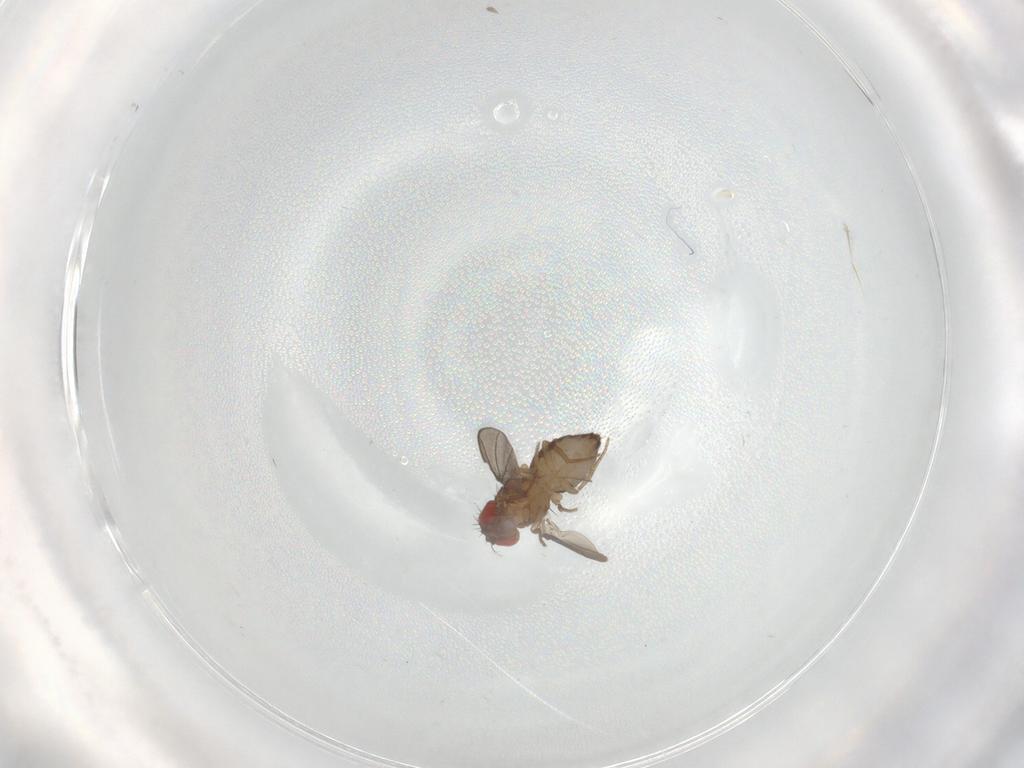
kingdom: Animalia
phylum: Arthropoda
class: Insecta
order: Diptera
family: Drosophilidae
